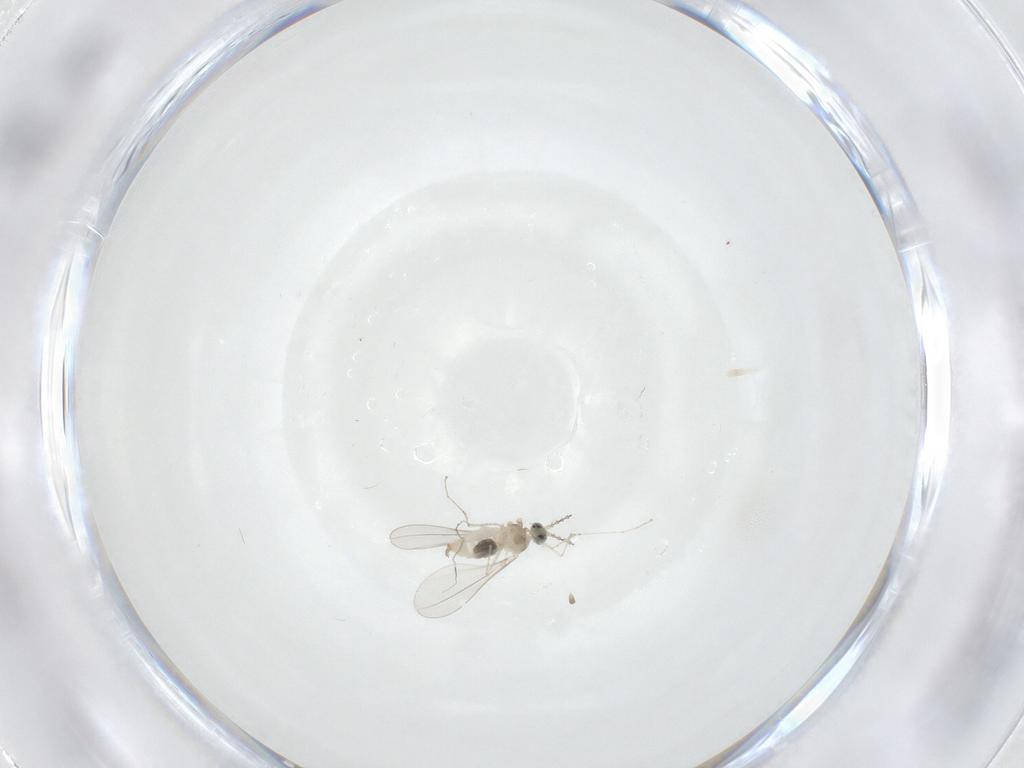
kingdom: Animalia
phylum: Arthropoda
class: Insecta
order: Diptera
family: Cecidomyiidae
